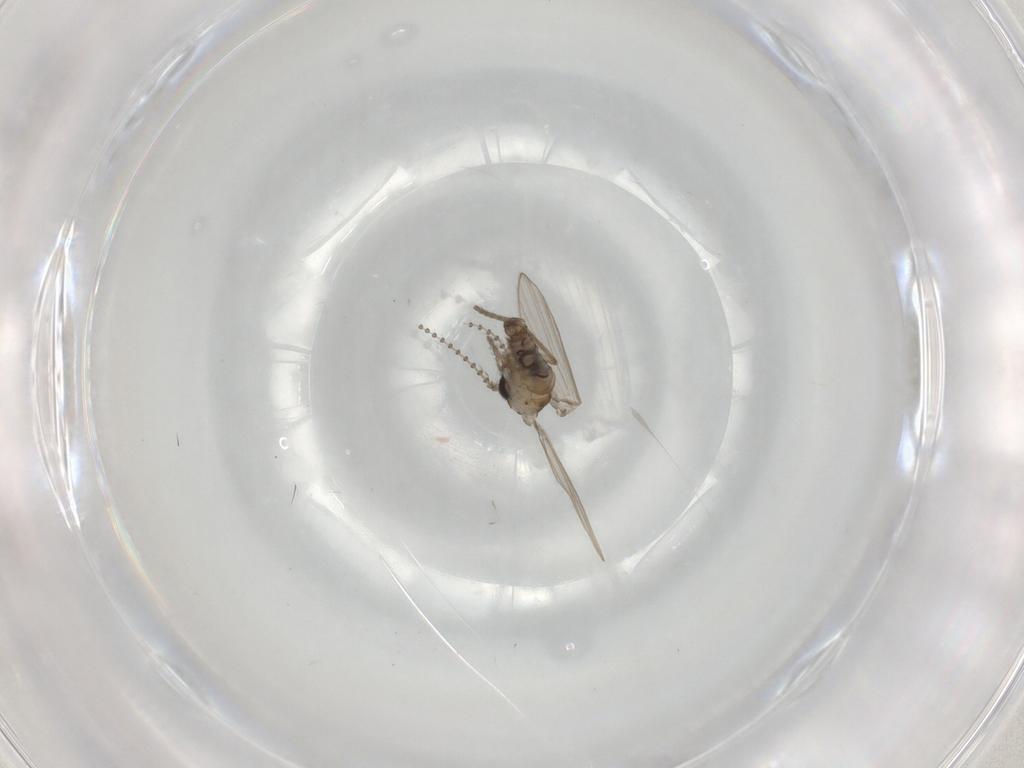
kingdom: Animalia
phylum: Arthropoda
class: Insecta
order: Diptera
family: Psychodidae
